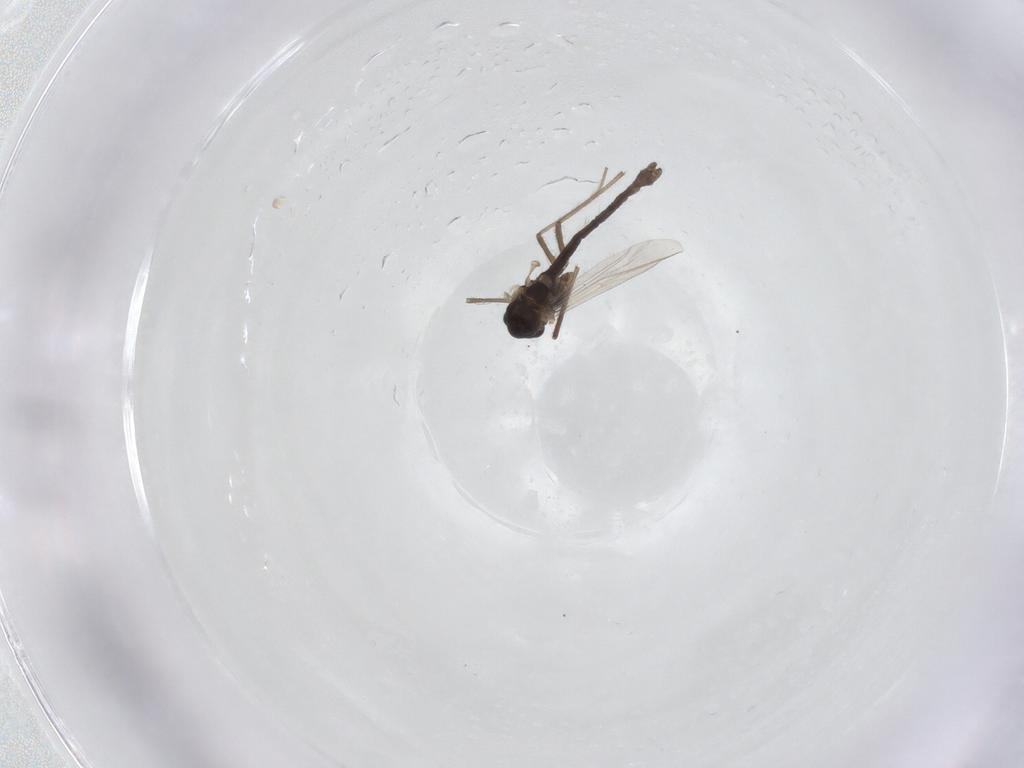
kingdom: Animalia
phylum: Arthropoda
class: Insecta
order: Diptera
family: Chironomidae
